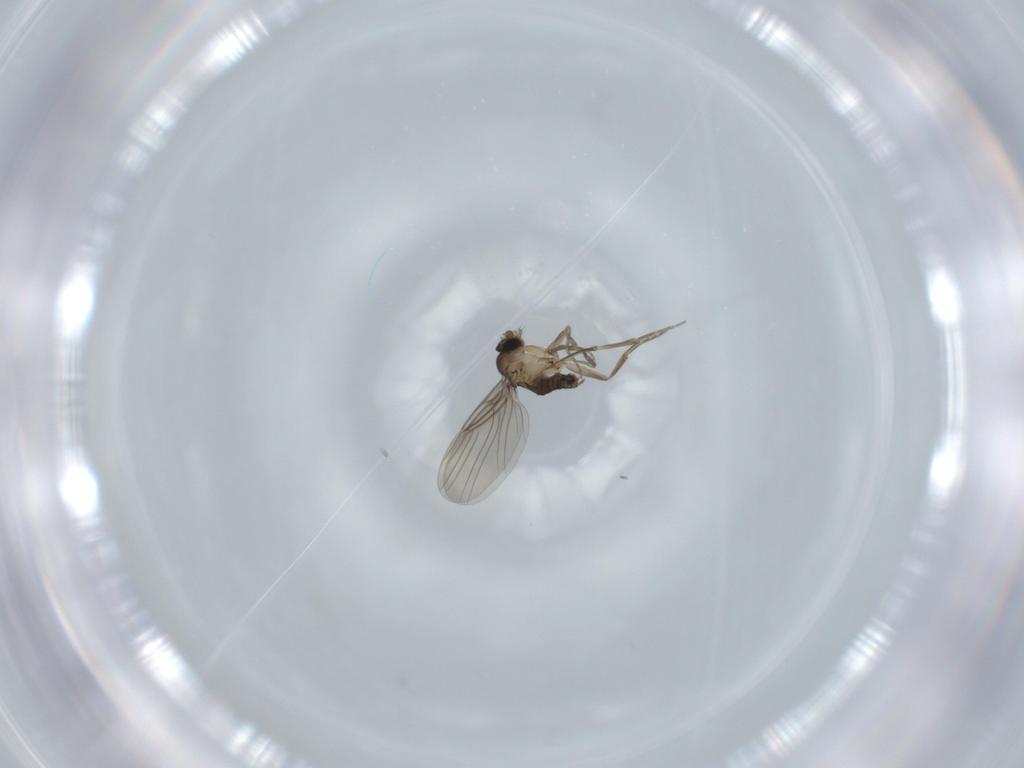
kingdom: Animalia
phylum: Arthropoda
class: Insecta
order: Diptera
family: Phoridae
